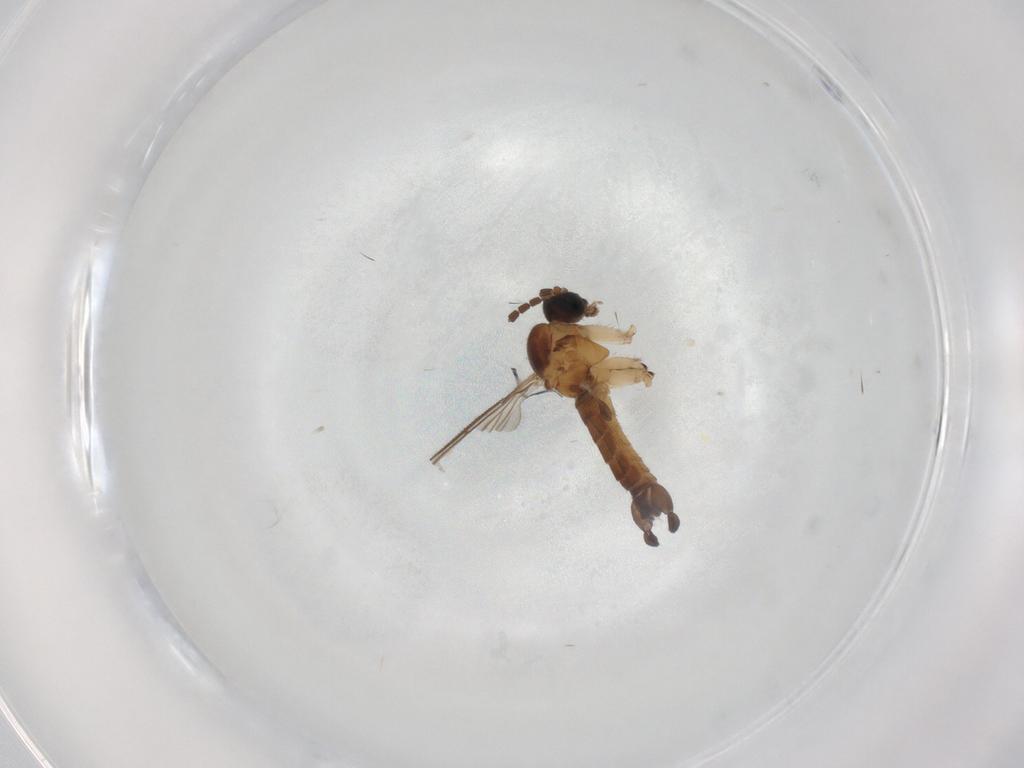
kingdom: Animalia
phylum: Arthropoda
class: Insecta
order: Diptera
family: Sciaridae
